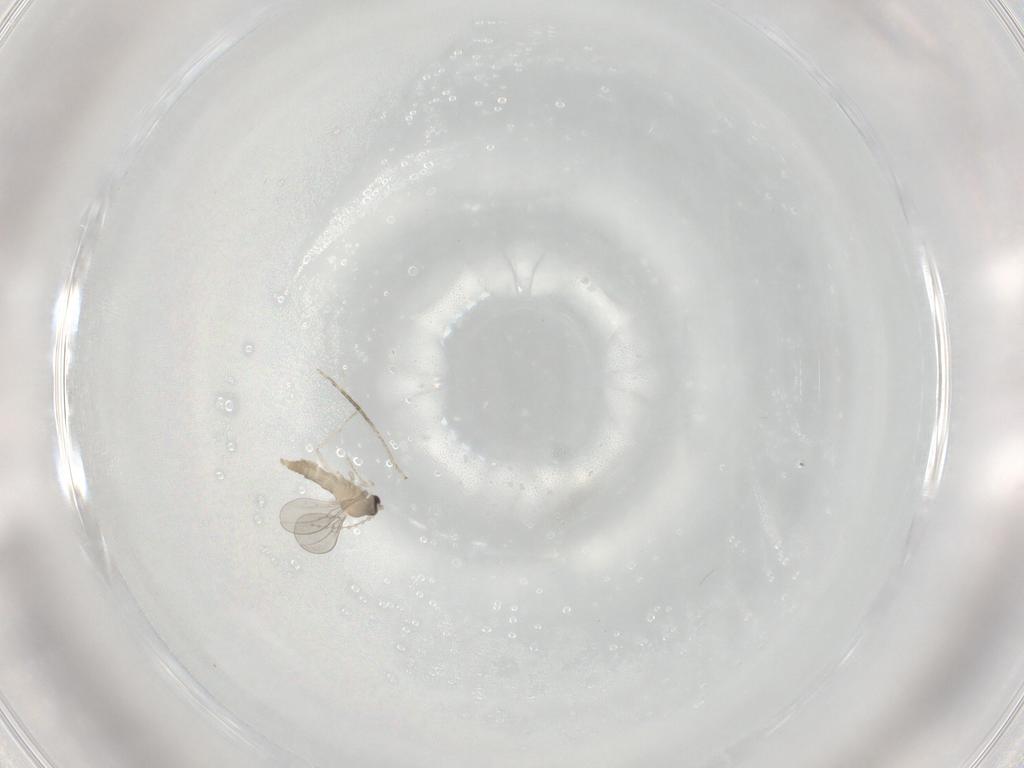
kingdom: Animalia
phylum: Arthropoda
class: Insecta
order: Diptera
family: Cecidomyiidae
